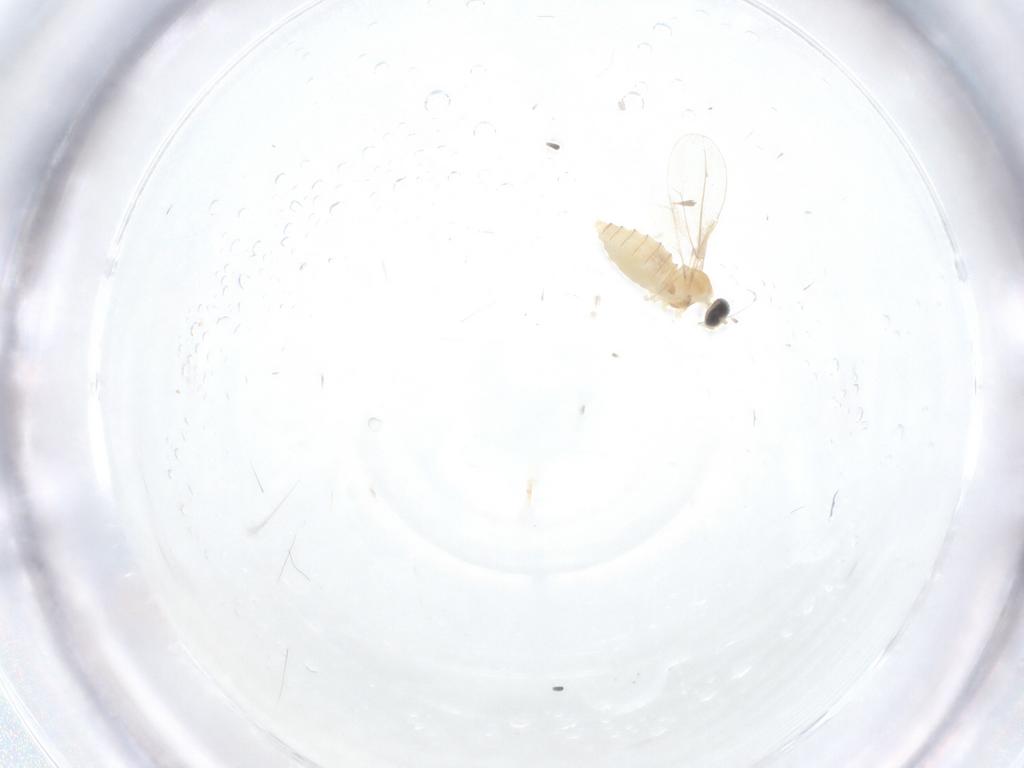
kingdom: Animalia
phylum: Arthropoda
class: Insecta
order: Diptera
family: Cecidomyiidae
